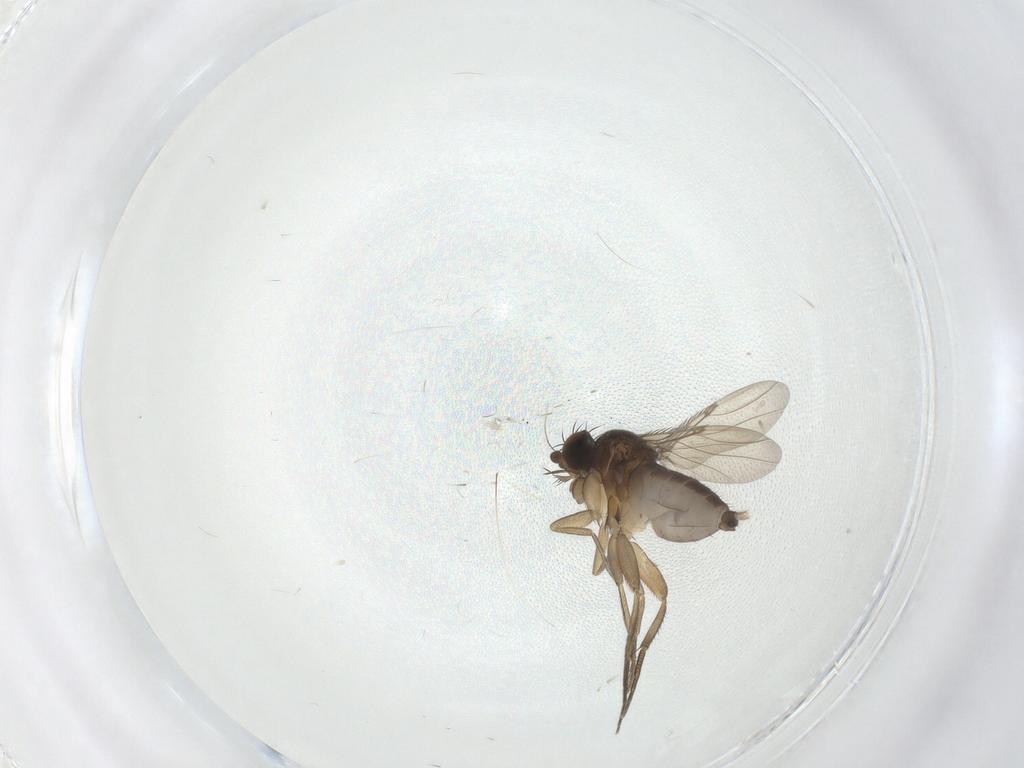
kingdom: Animalia
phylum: Arthropoda
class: Insecta
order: Diptera
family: Phoridae
